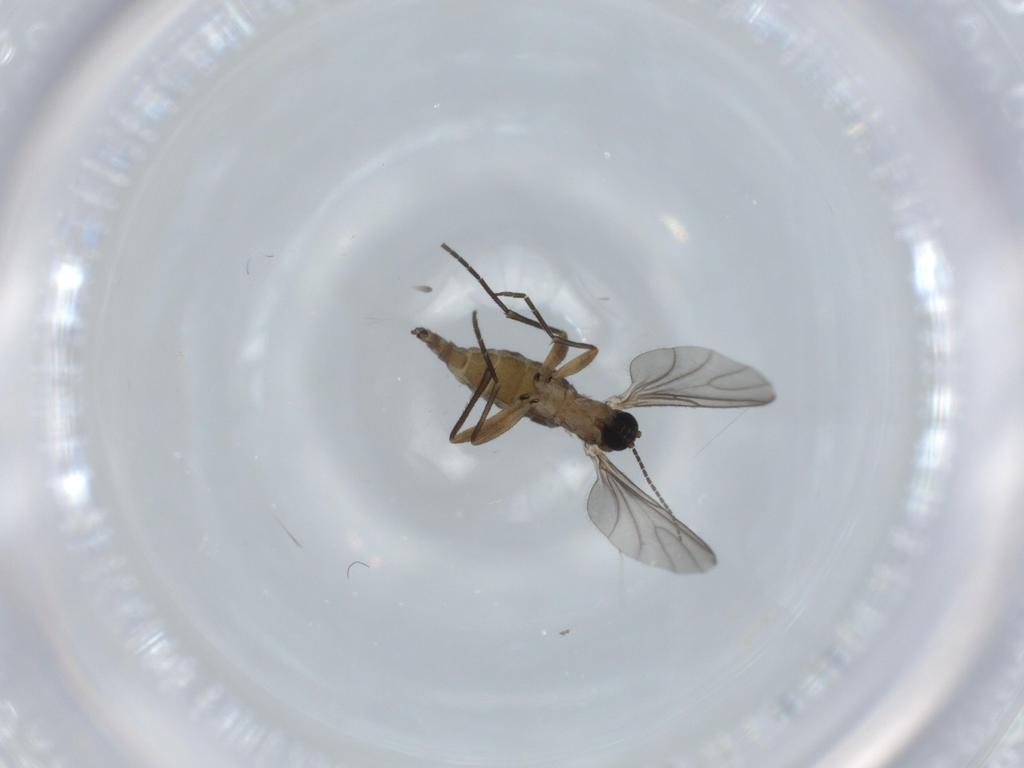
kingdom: Animalia
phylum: Arthropoda
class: Insecta
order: Diptera
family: Sciaridae
